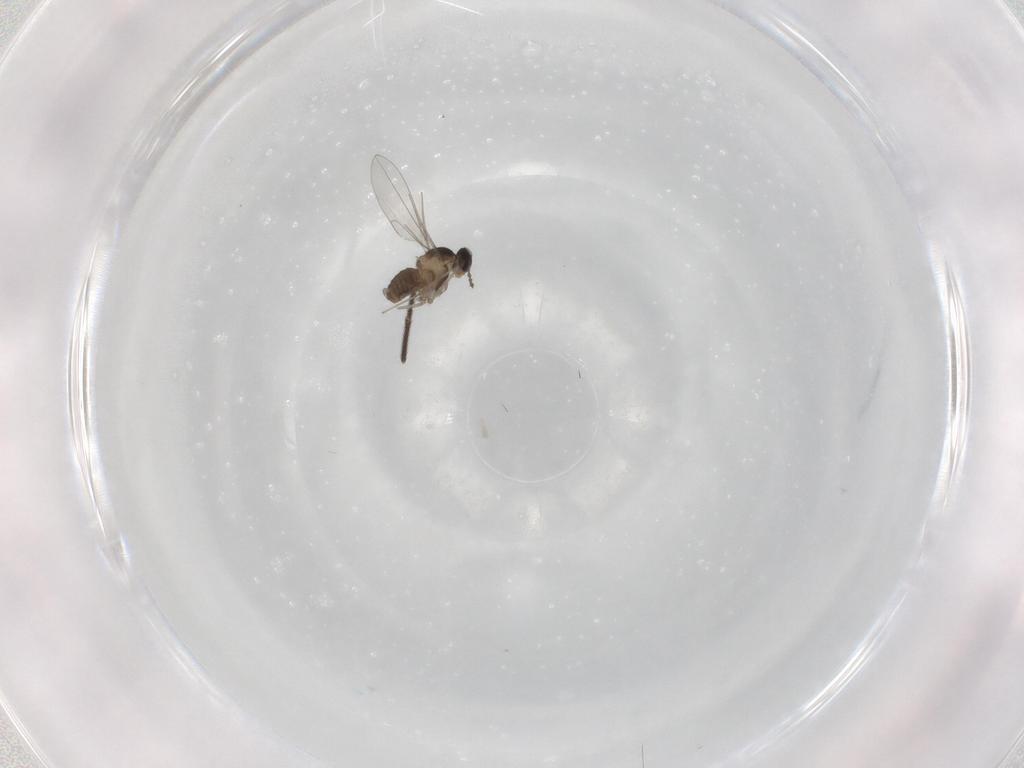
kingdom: Animalia
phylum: Arthropoda
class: Insecta
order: Diptera
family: Cecidomyiidae
